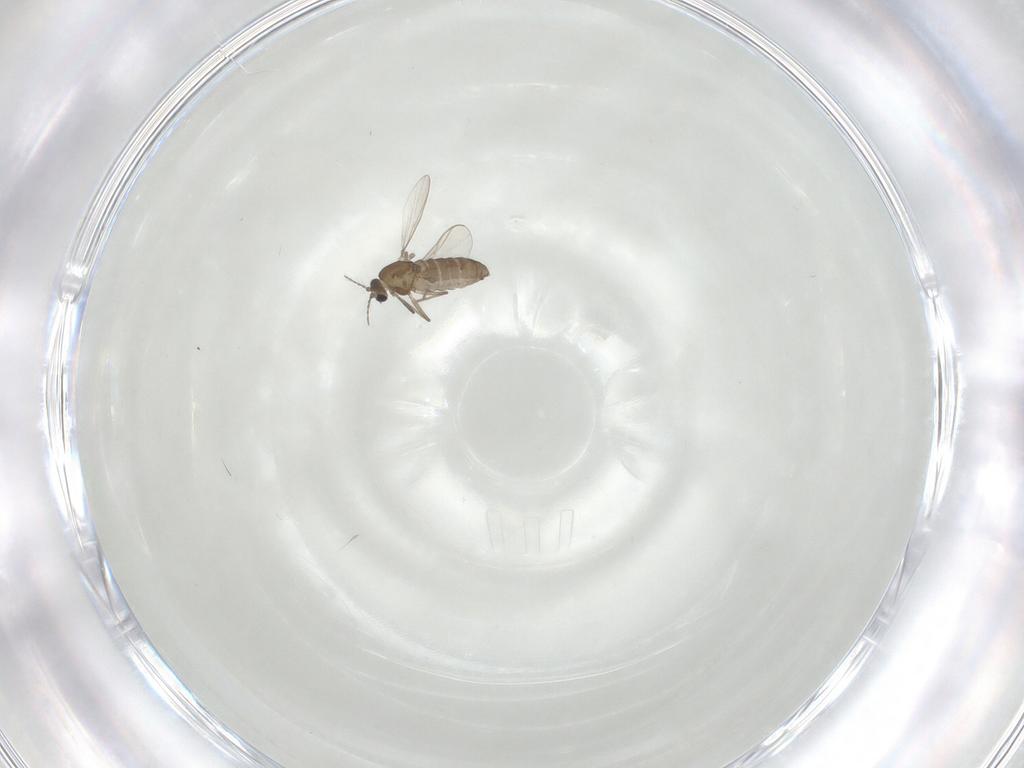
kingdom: Animalia
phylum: Arthropoda
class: Insecta
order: Diptera
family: Chironomidae
